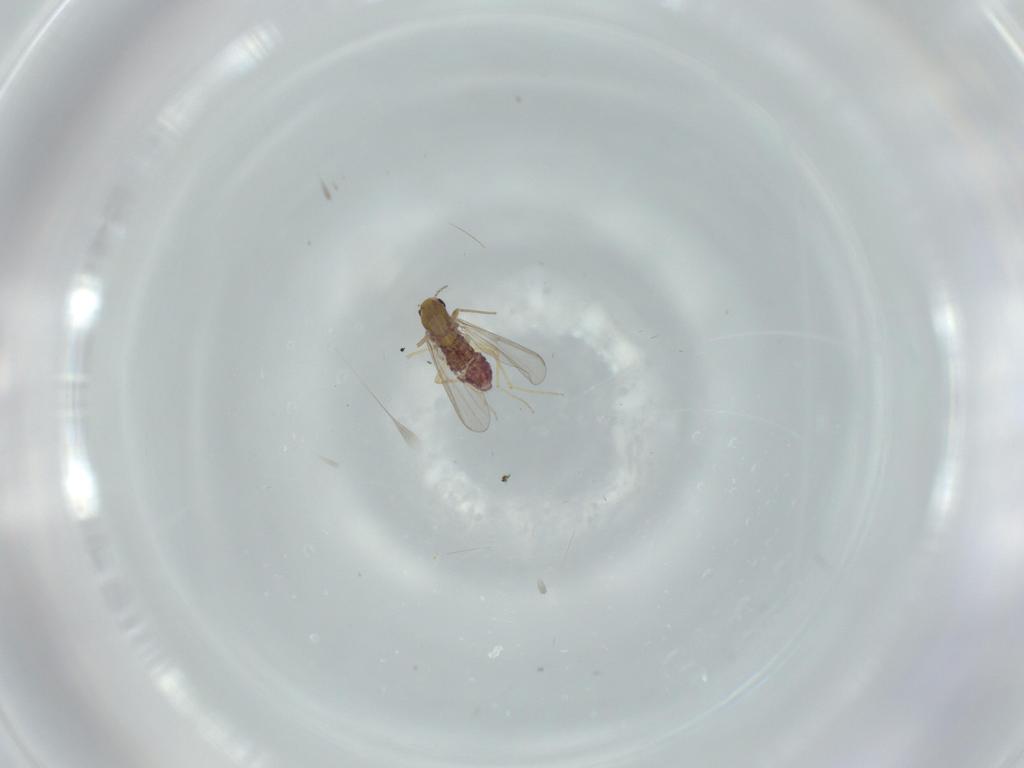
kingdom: Animalia
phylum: Arthropoda
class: Insecta
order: Diptera
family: Chironomidae
